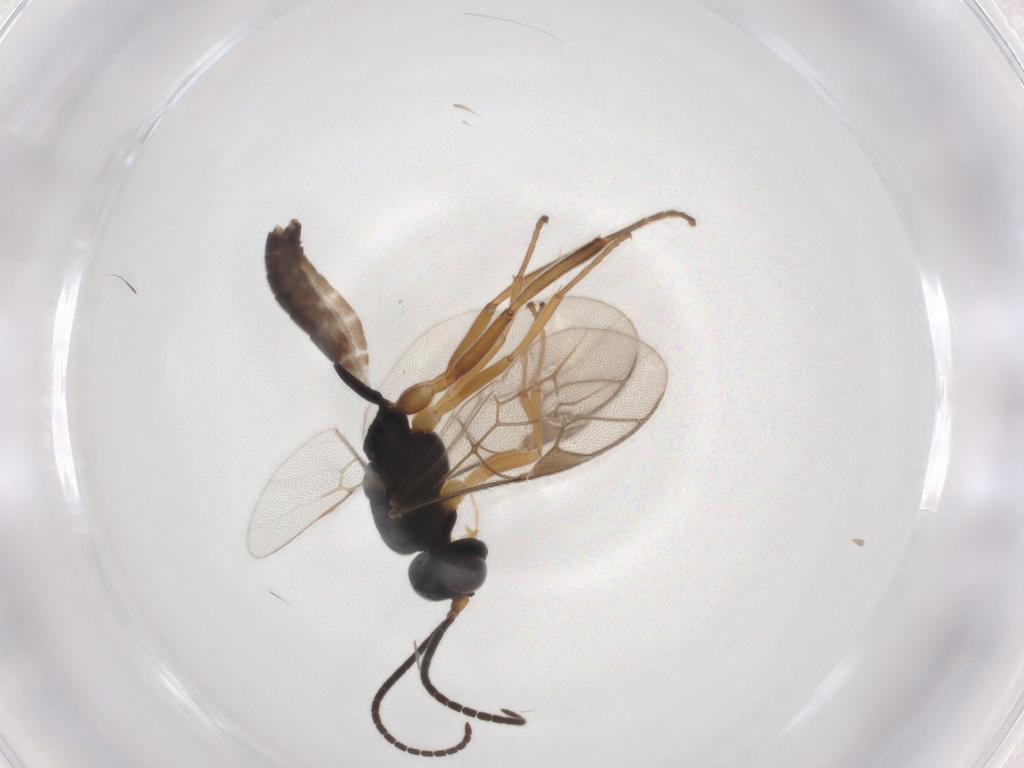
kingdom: Animalia
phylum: Arthropoda
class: Insecta
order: Hymenoptera
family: Ichneumonidae
